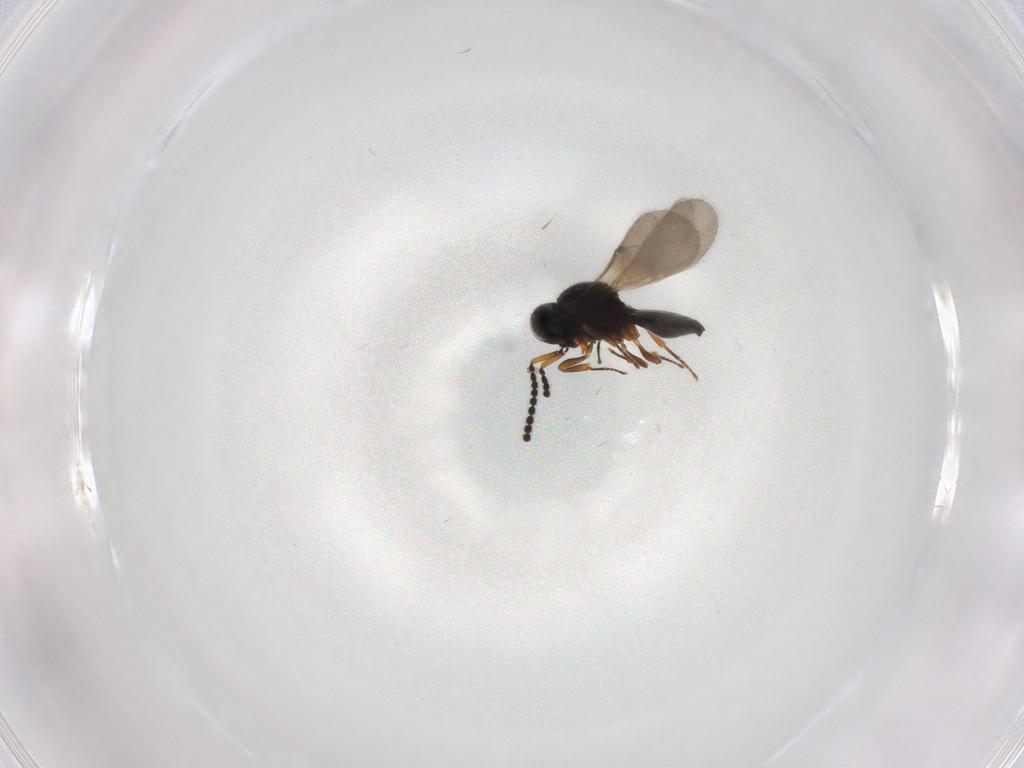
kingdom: Animalia
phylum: Arthropoda
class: Insecta
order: Hymenoptera
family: Scelionidae
